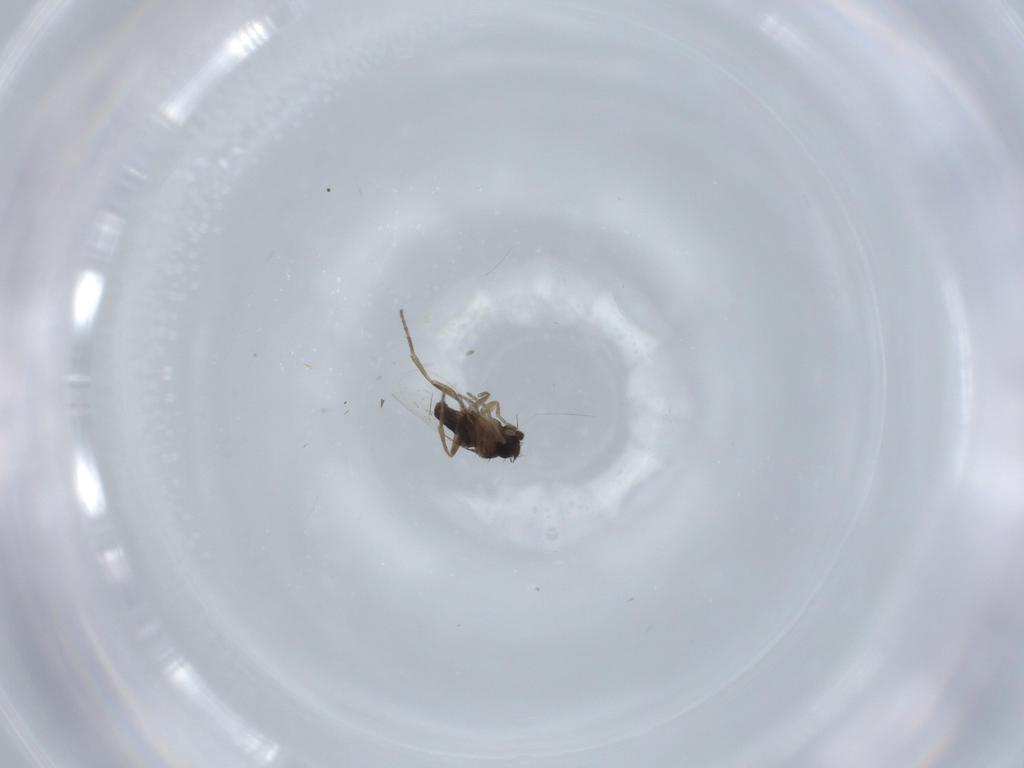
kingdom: Animalia
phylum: Arthropoda
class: Insecta
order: Diptera
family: Phoridae
